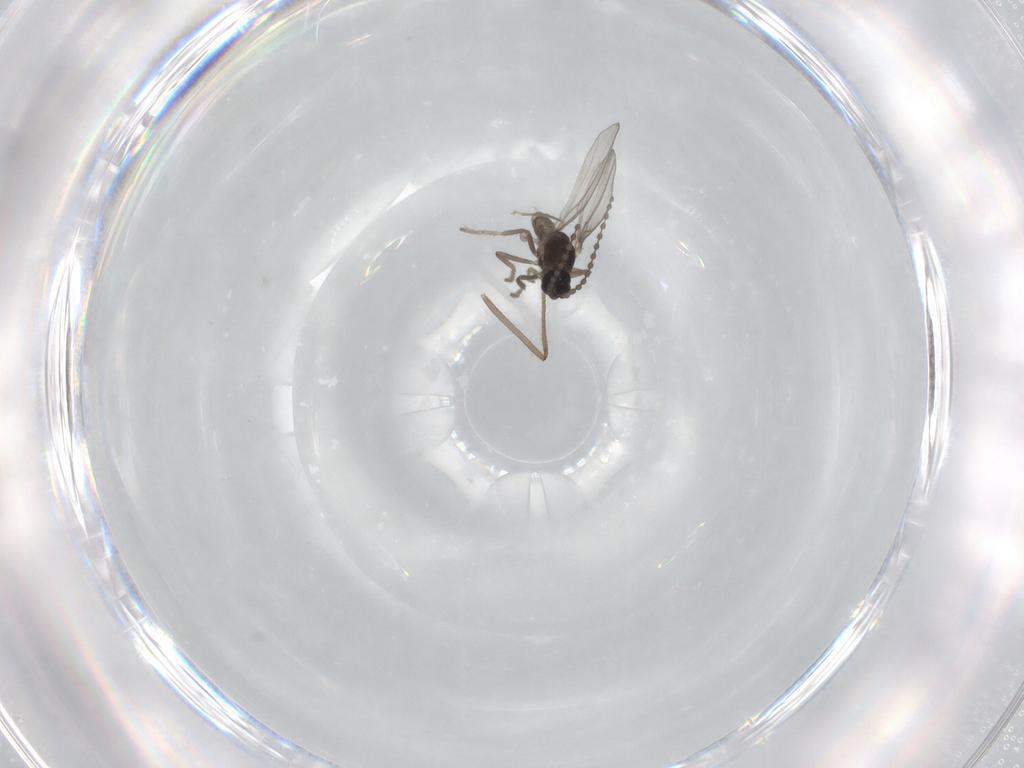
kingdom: Animalia
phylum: Arthropoda
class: Insecta
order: Diptera
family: Cecidomyiidae
